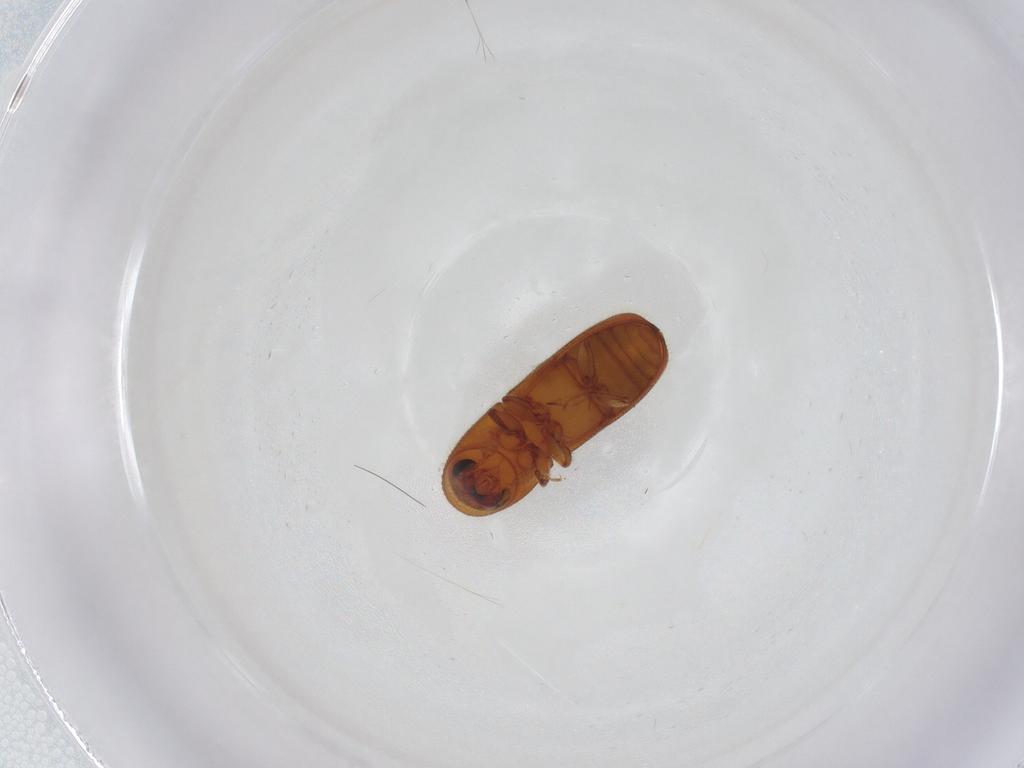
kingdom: Animalia
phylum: Arthropoda
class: Insecta
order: Coleoptera
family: Curculionidae
